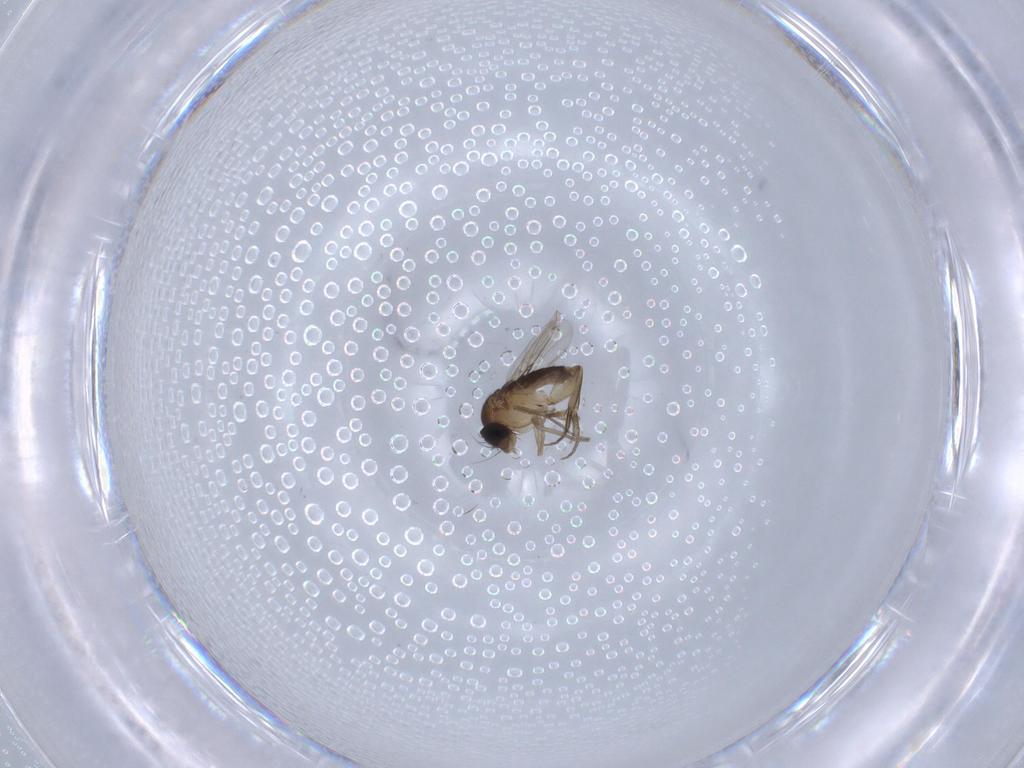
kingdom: Animalia
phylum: Arthropoda
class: Insecta
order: Diptera
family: Phoridae
